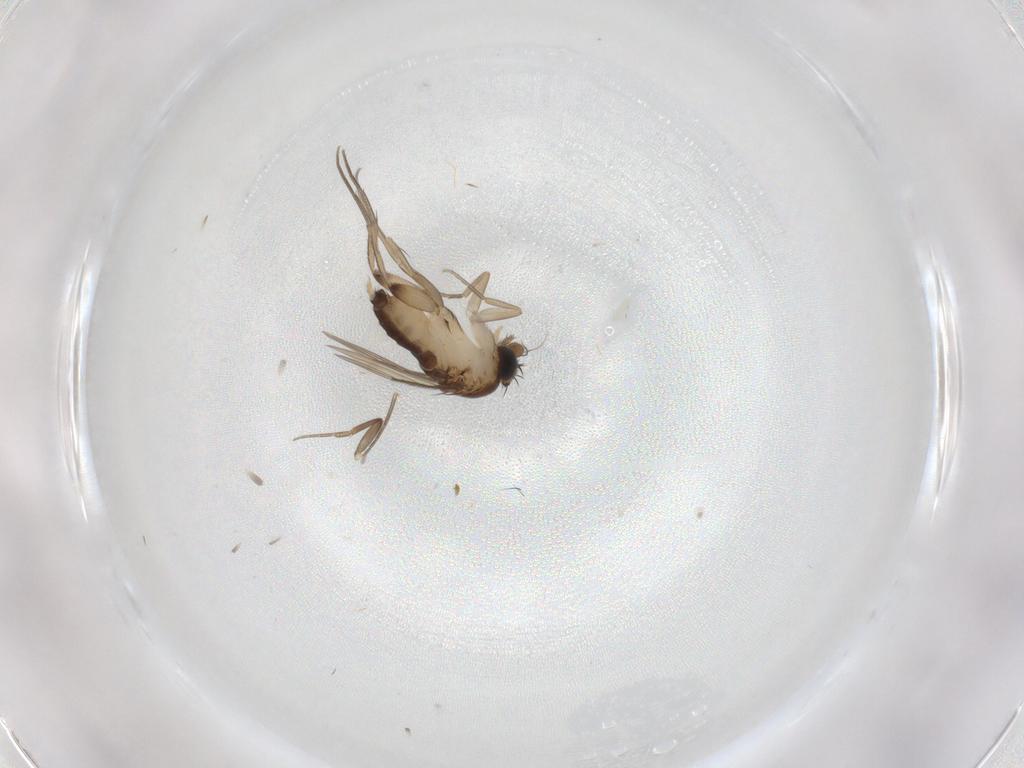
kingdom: Animalia
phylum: Arthropoda
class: Insecta
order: Diptera
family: Phoridae
